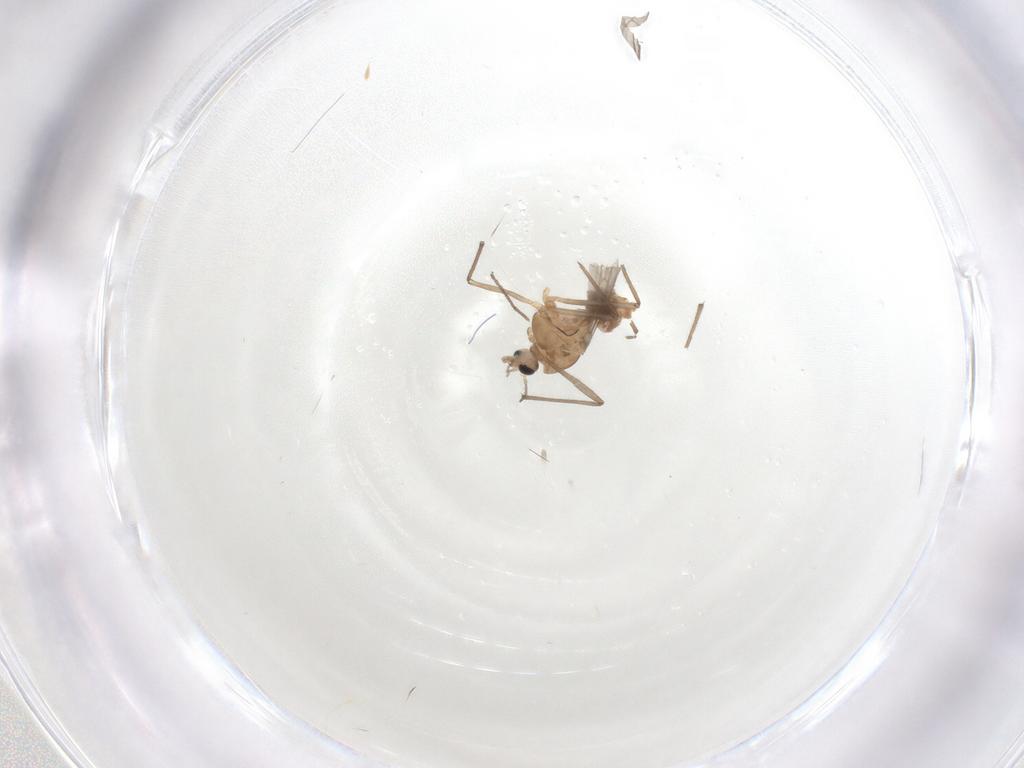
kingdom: Animalia
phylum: Arthropoda
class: Insecta
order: Diptera
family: Chironomidae
